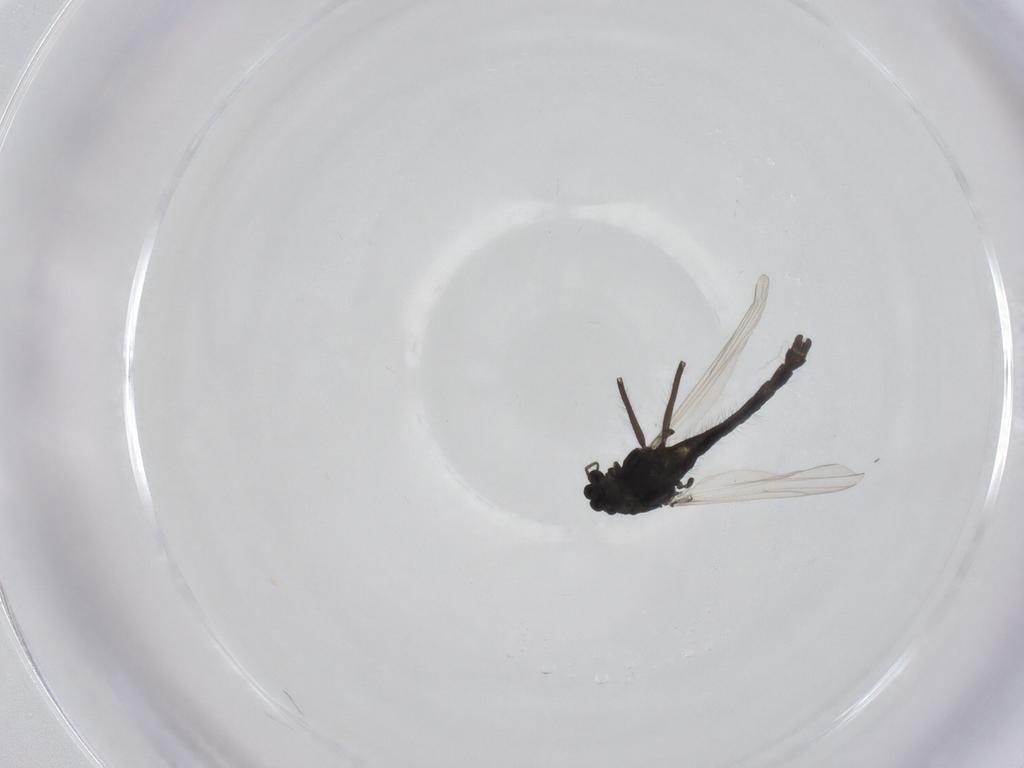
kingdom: Animalia
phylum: Arthropoda
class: Insecta
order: Diptera
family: Chironomidae
